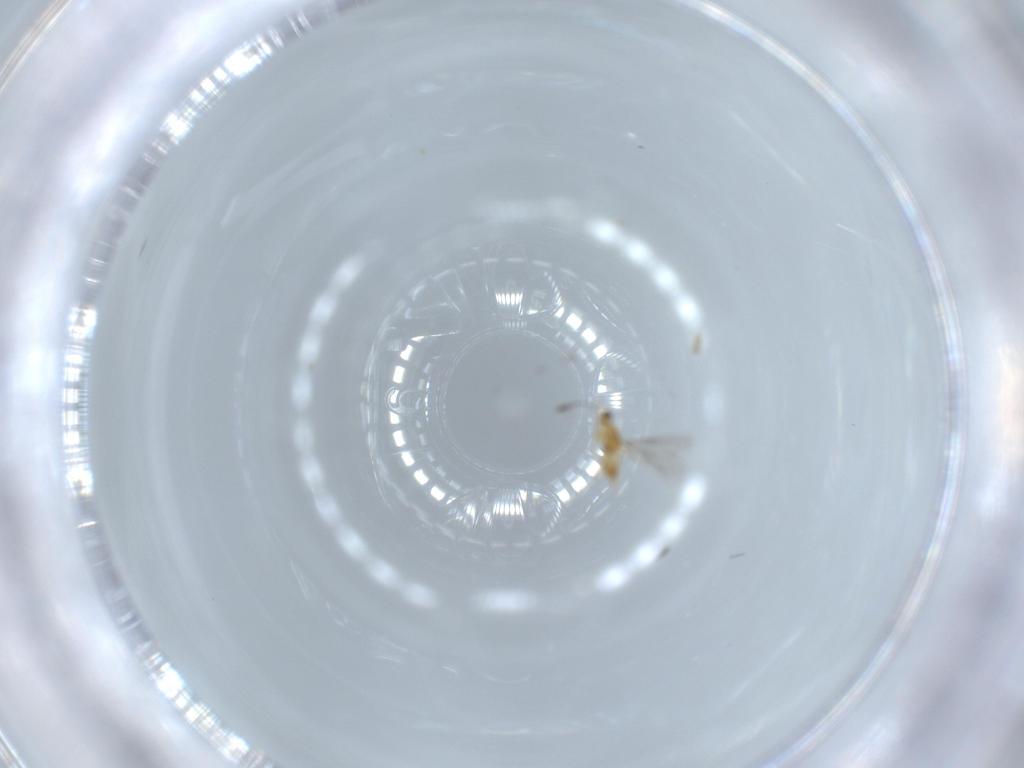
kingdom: Animalia
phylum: Arthropoda
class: Insecta
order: Hymenoptera
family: Mymaridae
